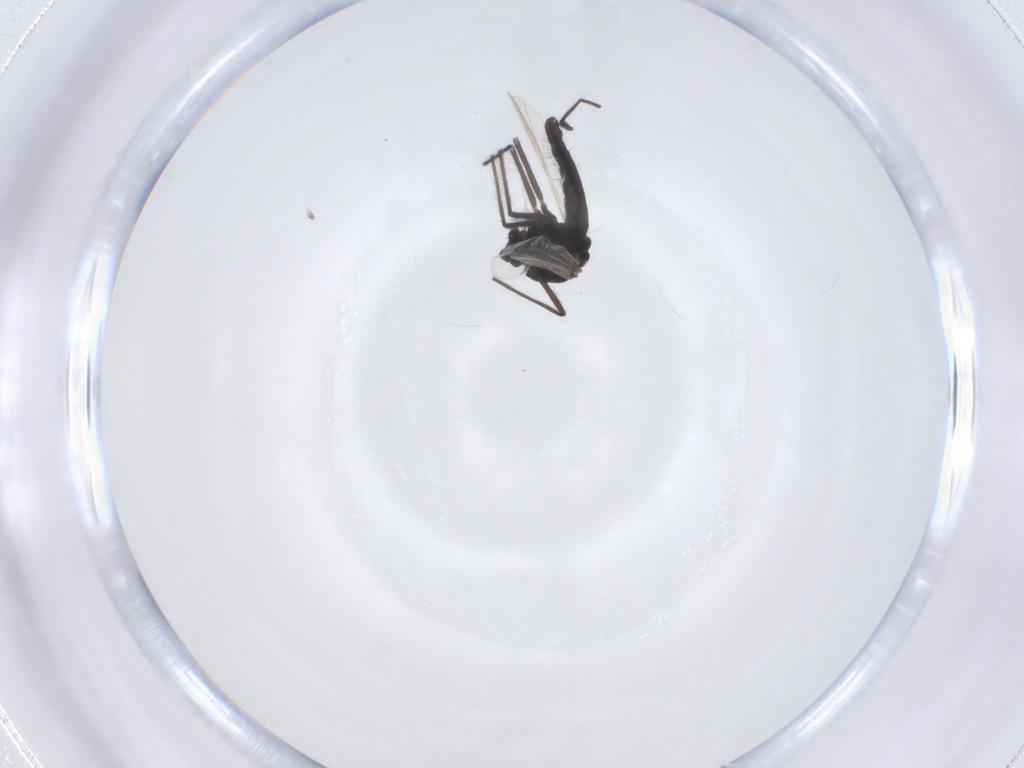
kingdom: Animalia
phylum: Arthropoda
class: Insecta
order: Diptera
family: Chironomidae
